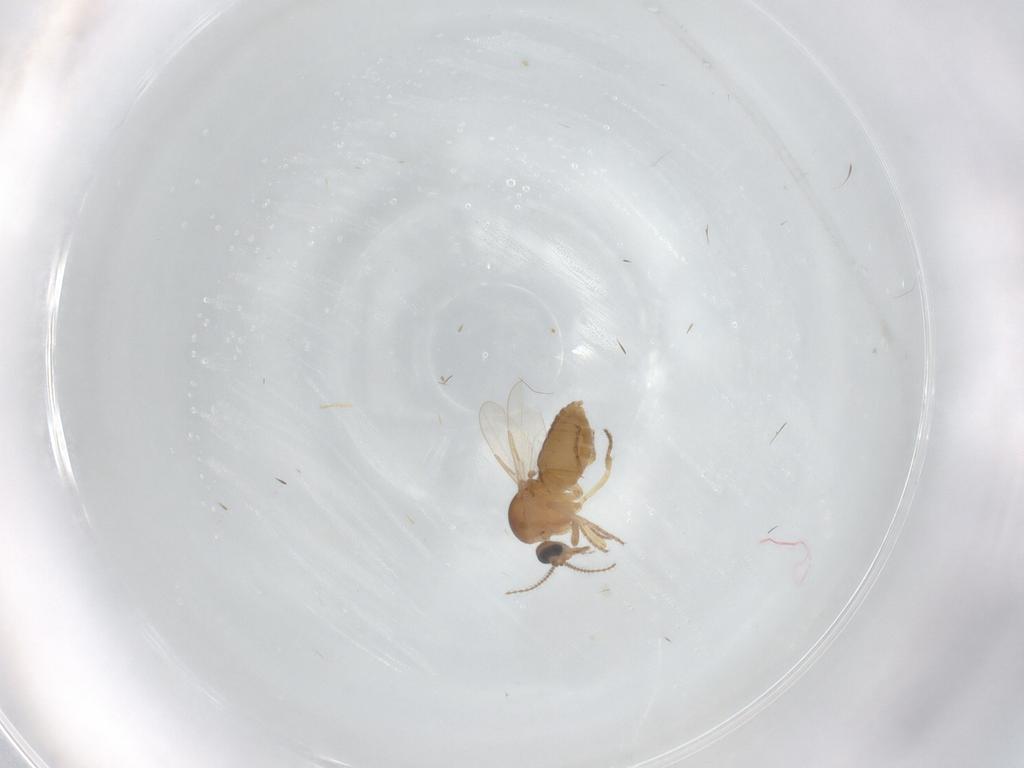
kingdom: Animalia
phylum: Arthropoda
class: Insecta
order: Diptera
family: Ceratopogonidae
